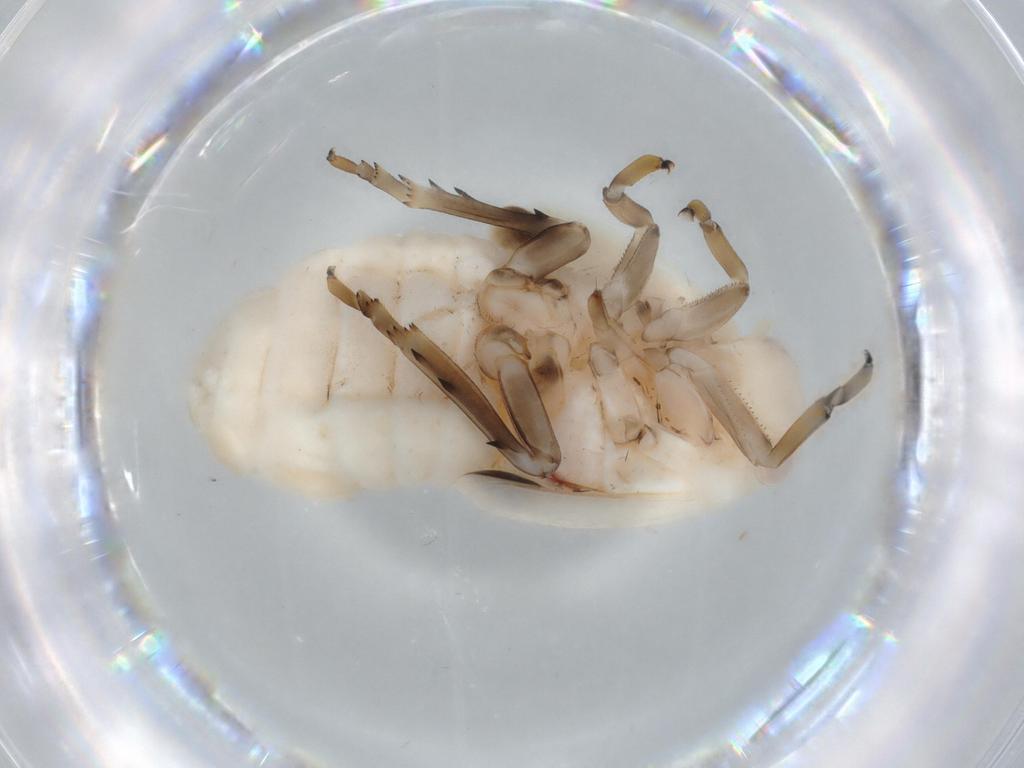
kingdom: Animalia
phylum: Arthropoda
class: Insecta
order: Hemiptera
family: Flatidae
